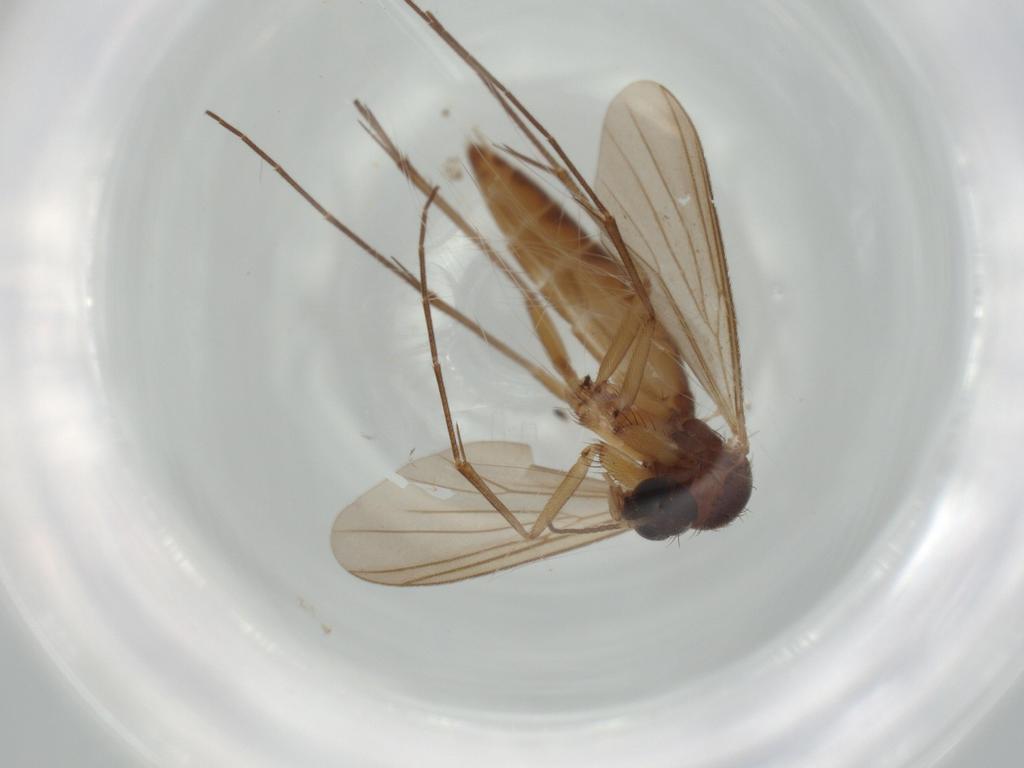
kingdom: Animalia
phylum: Arthropoda
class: Insecta
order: Diptera
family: Mycetophilidae
